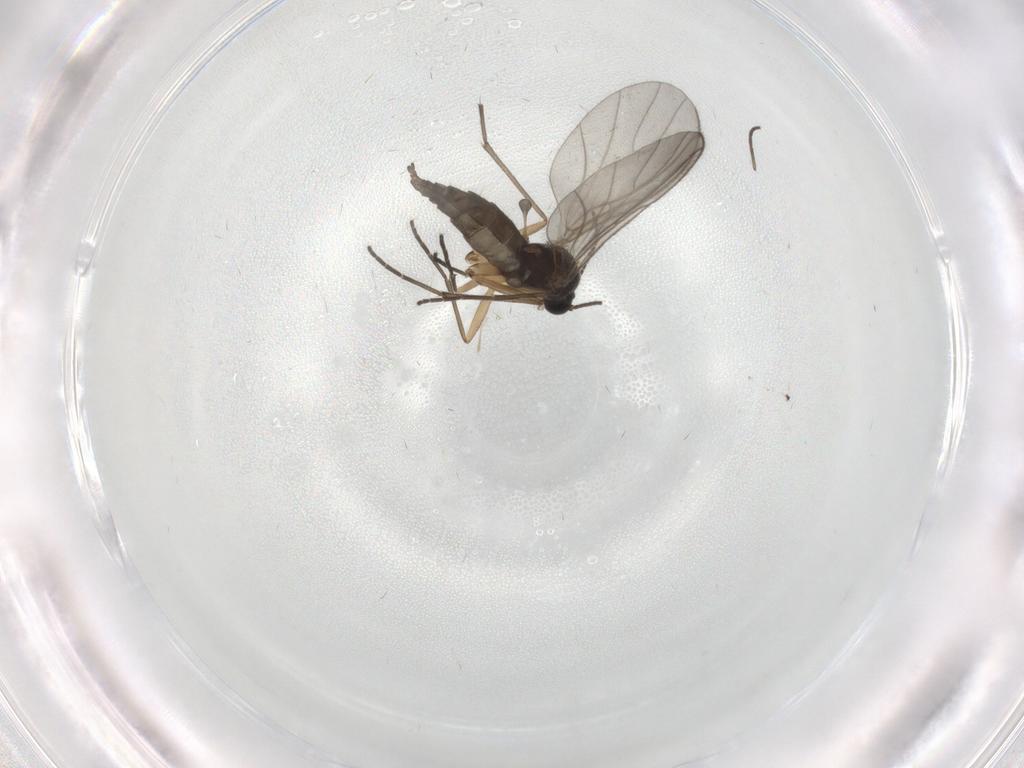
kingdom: Animalia
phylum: Arthropoda
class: Insecta
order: Diptera
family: Sciaridae
